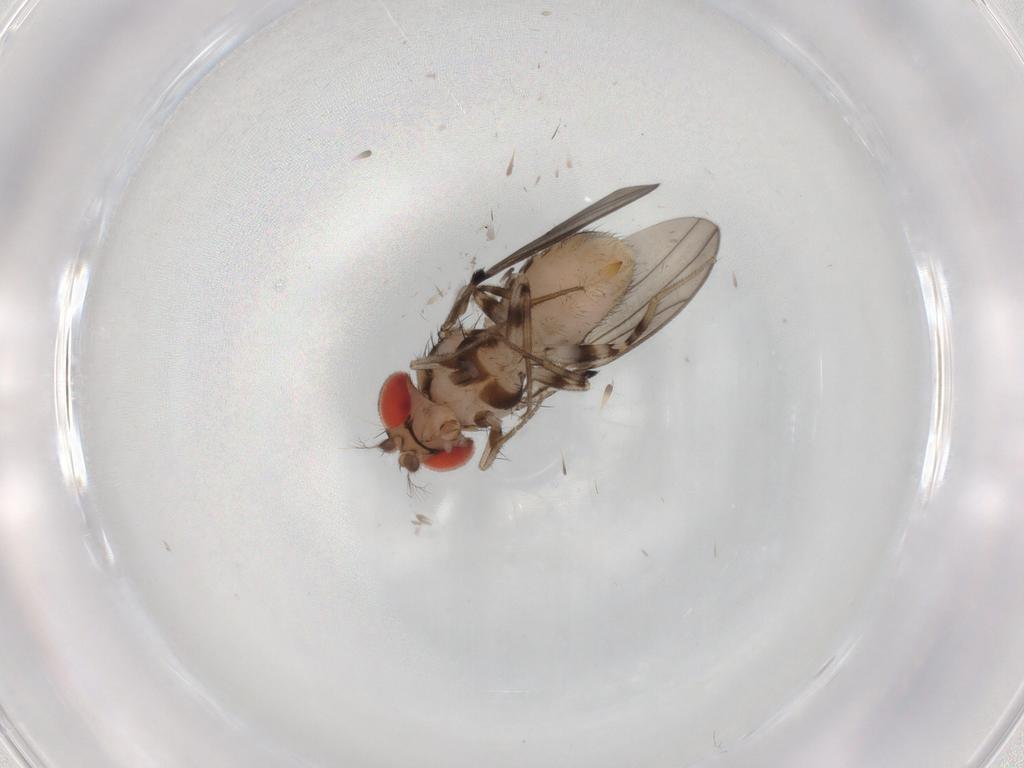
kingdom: Animalia
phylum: Arthropoda
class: Insecta
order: Diptera
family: Drosophilidae
